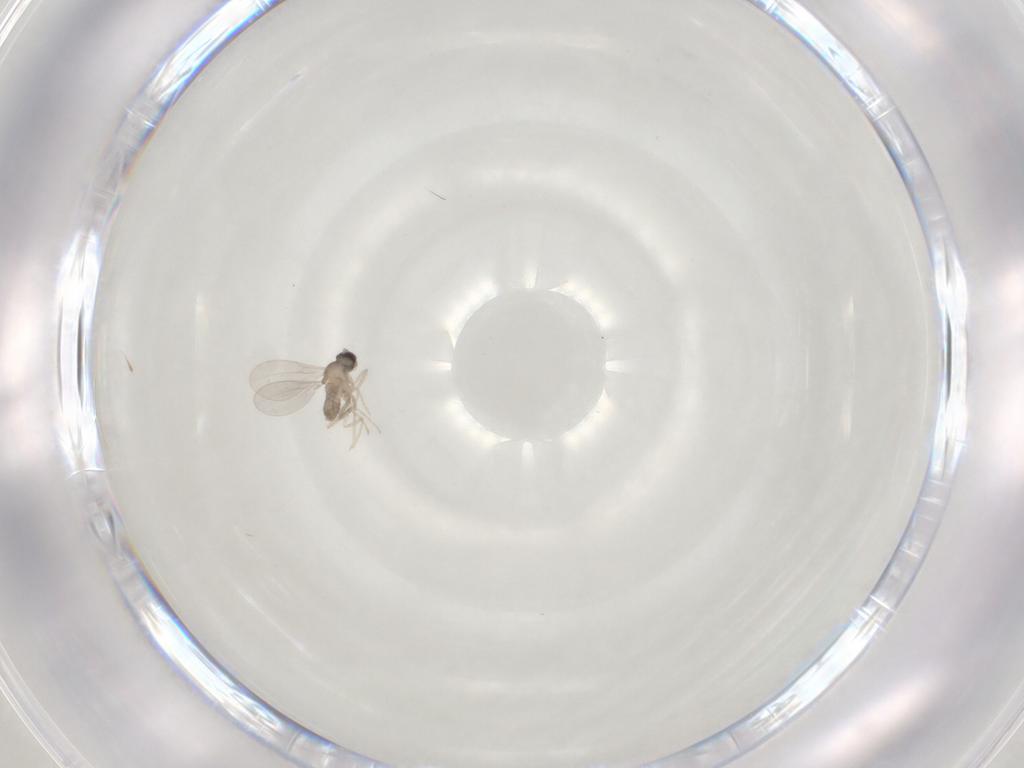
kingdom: Animalia
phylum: Arthropoda
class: Insecta
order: Diptera
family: Cecidomyiidae
